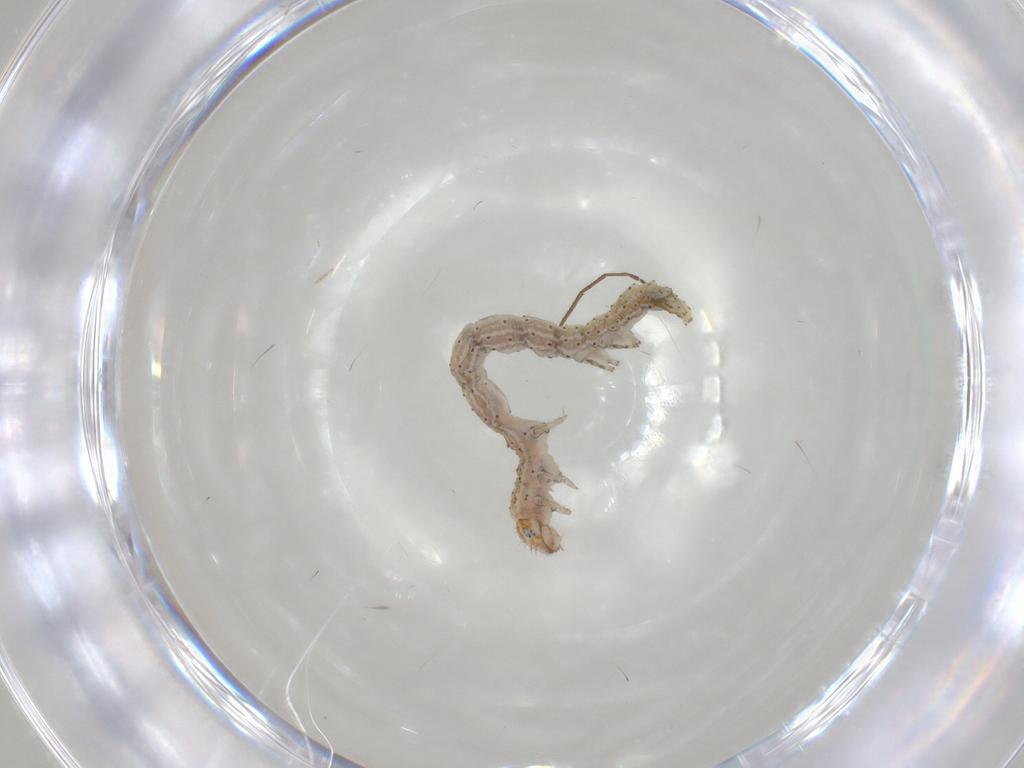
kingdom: Animalia
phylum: Arthropoda
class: Insecta
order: Lepidoptera
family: Erebidae
